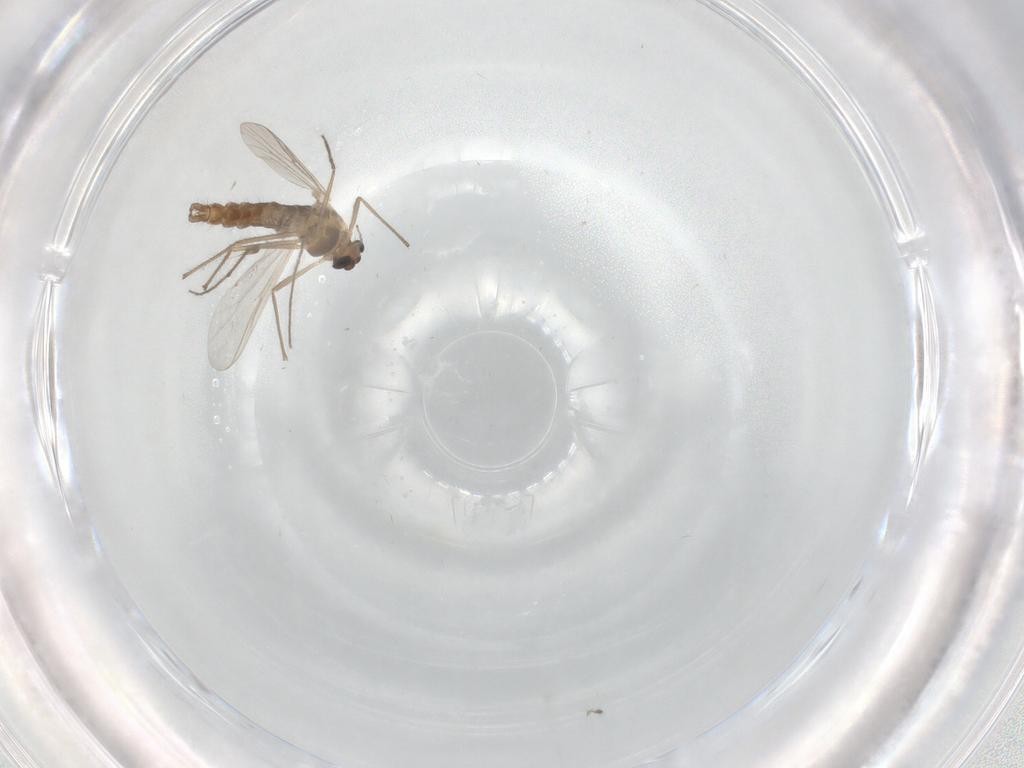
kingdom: Animalia
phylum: Arthropoda
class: Insecta
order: Diptera
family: Chironomidae
